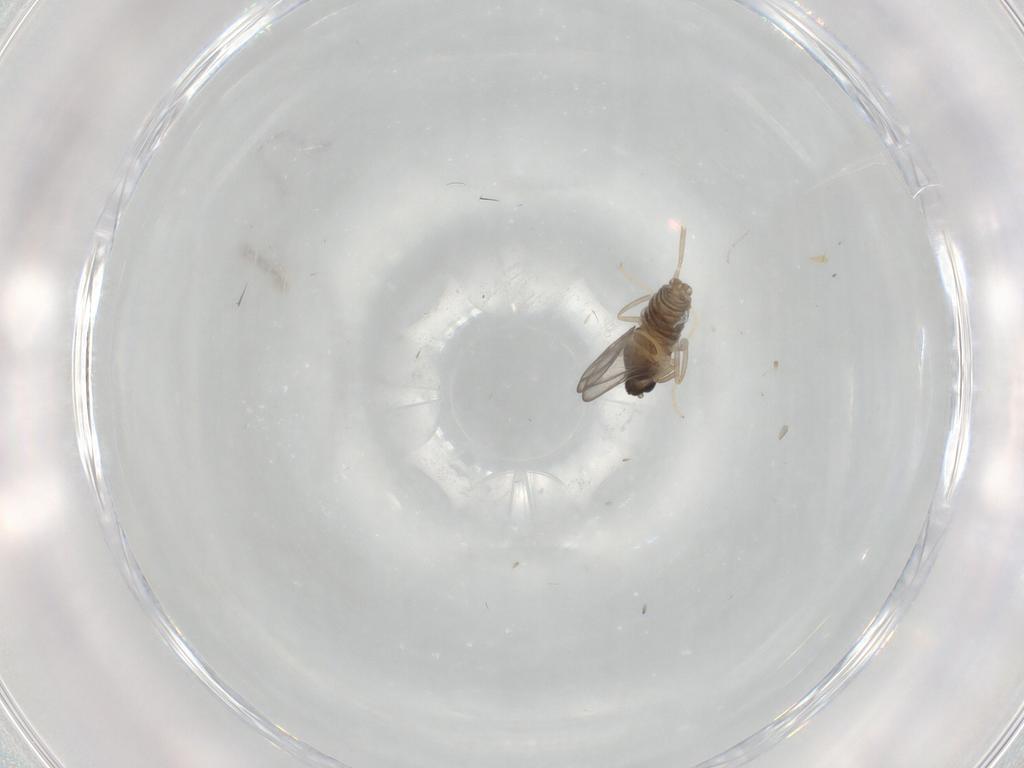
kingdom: Animalia
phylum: Arthropoda
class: Insecta
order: Diptera
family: Cecidomyiidae
